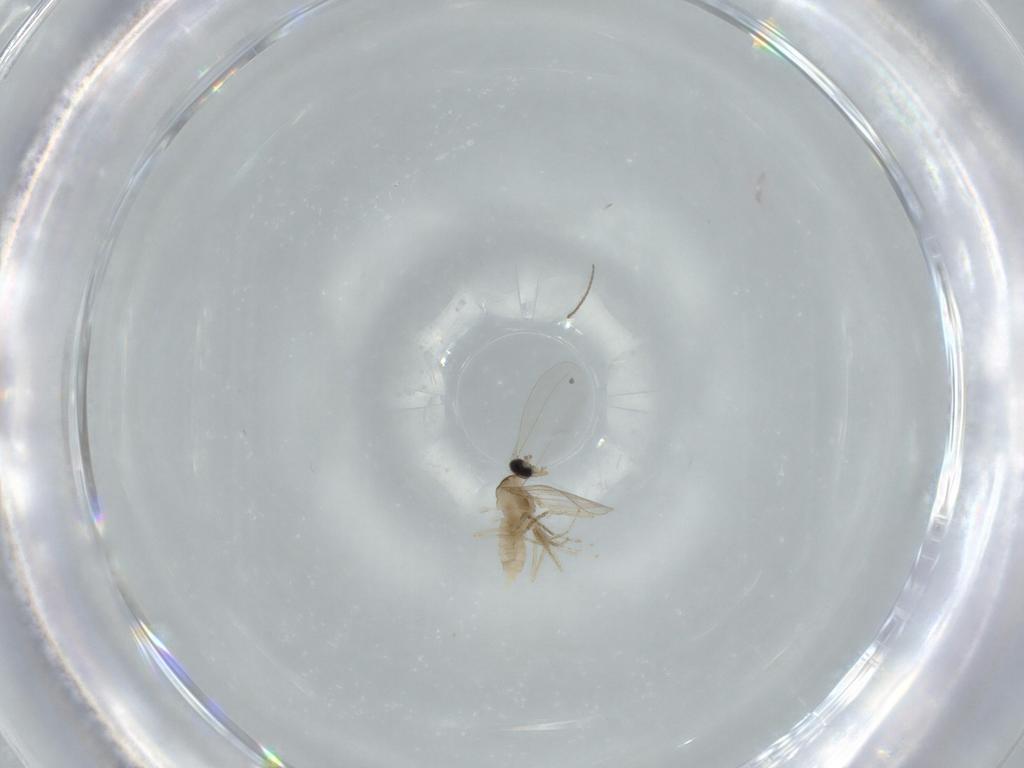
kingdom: Animalia
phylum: Arthropoda
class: Insecta
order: Diptera
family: Cecidomyiidae
